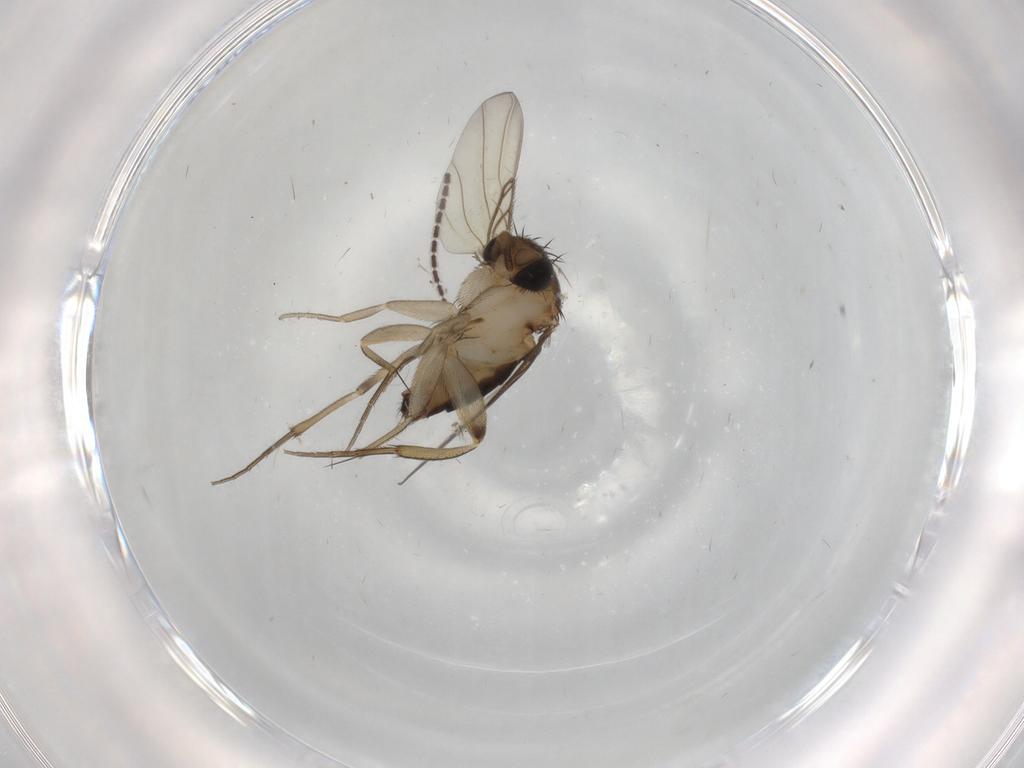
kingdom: Animalia
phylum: Arthropoda
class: Insecta
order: Diptera
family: Phoridae
